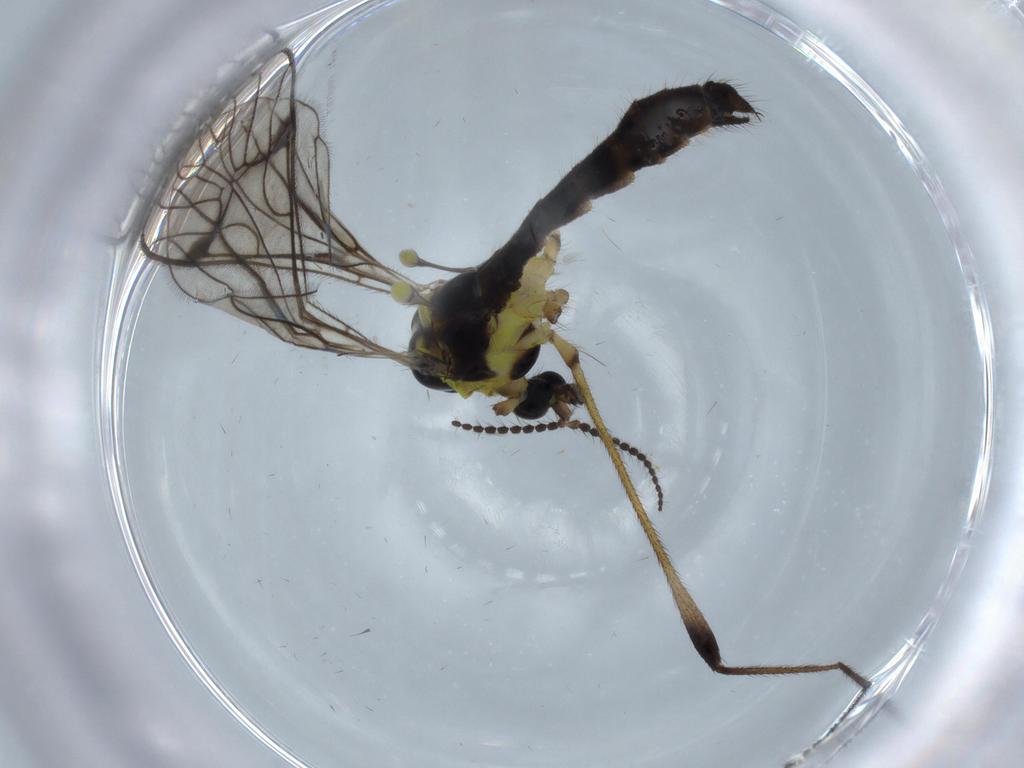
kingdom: Animalia
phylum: Arthropoda
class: Insecta
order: Diptera
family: Limoniidae
